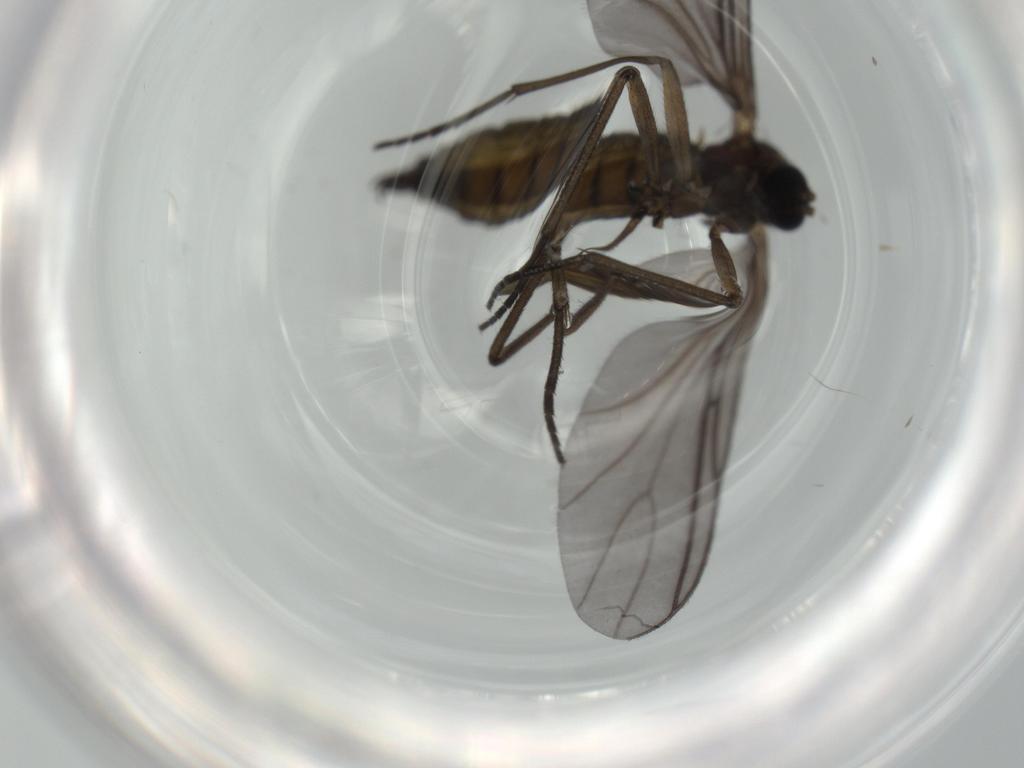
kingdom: Animalia
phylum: Arthropoda
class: Insecta
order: Diptera
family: Sciaridae
